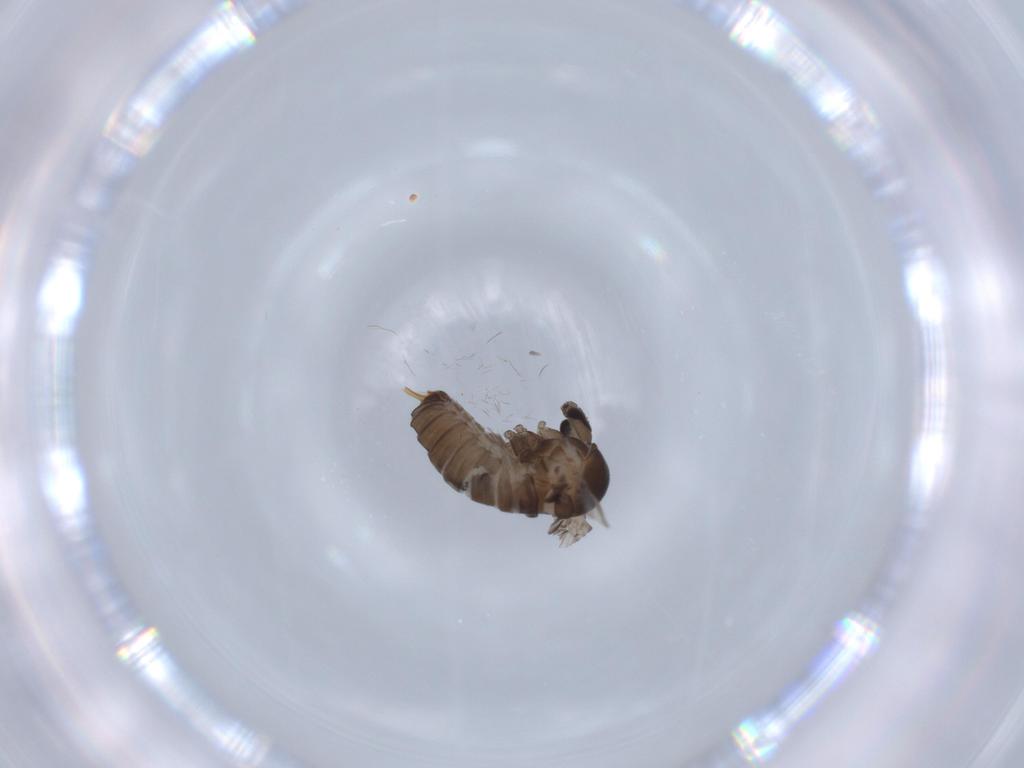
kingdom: Animalia
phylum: Arthropoda
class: Insecta
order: Diptera
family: Psychodidae
